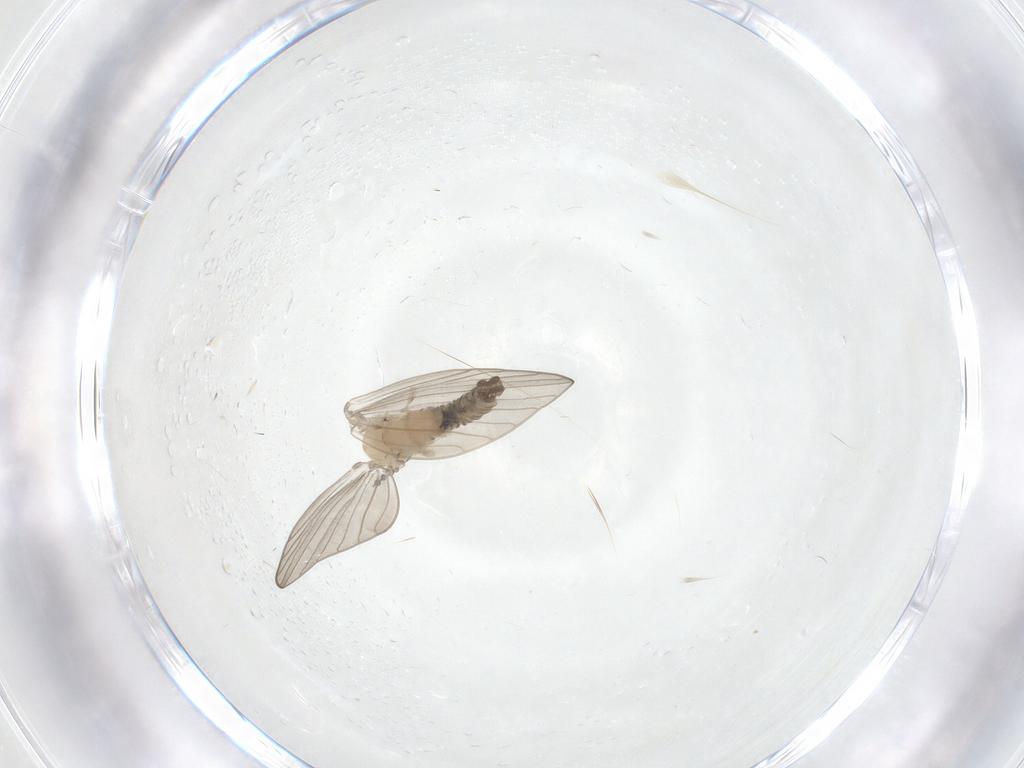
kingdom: Animalia
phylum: Arthropoda
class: Insecta
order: Diptera
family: Psychodidae
